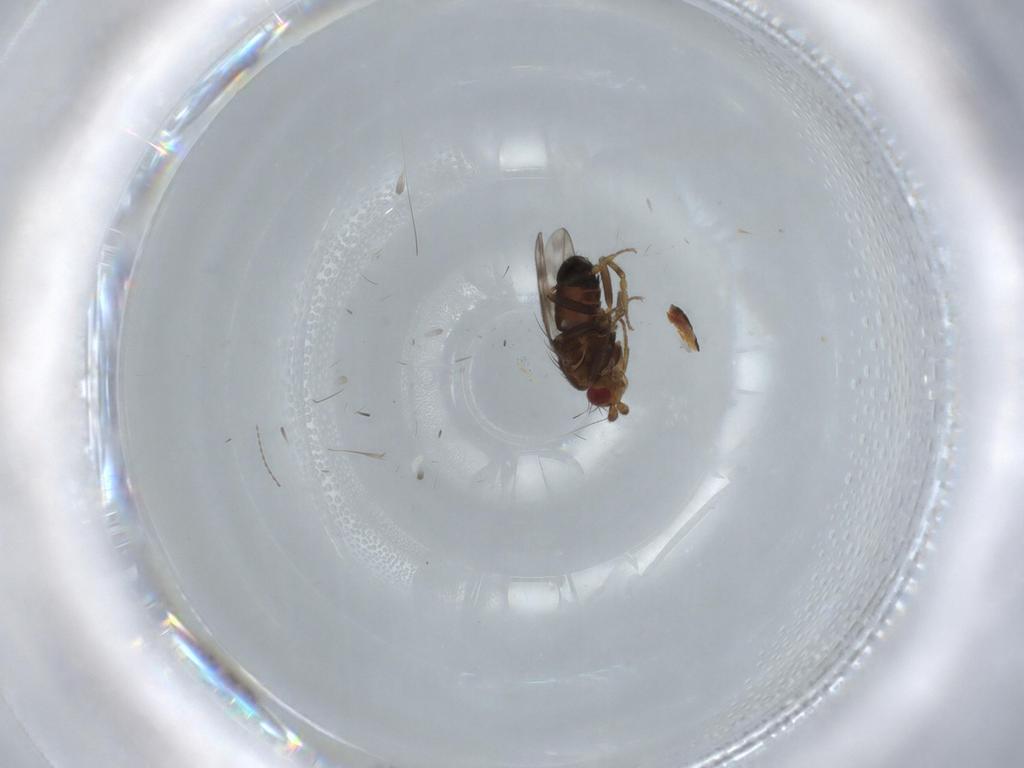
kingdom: Animalia
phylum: Arthropoda
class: Insecta
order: Diptera
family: Sphaeroceridae
